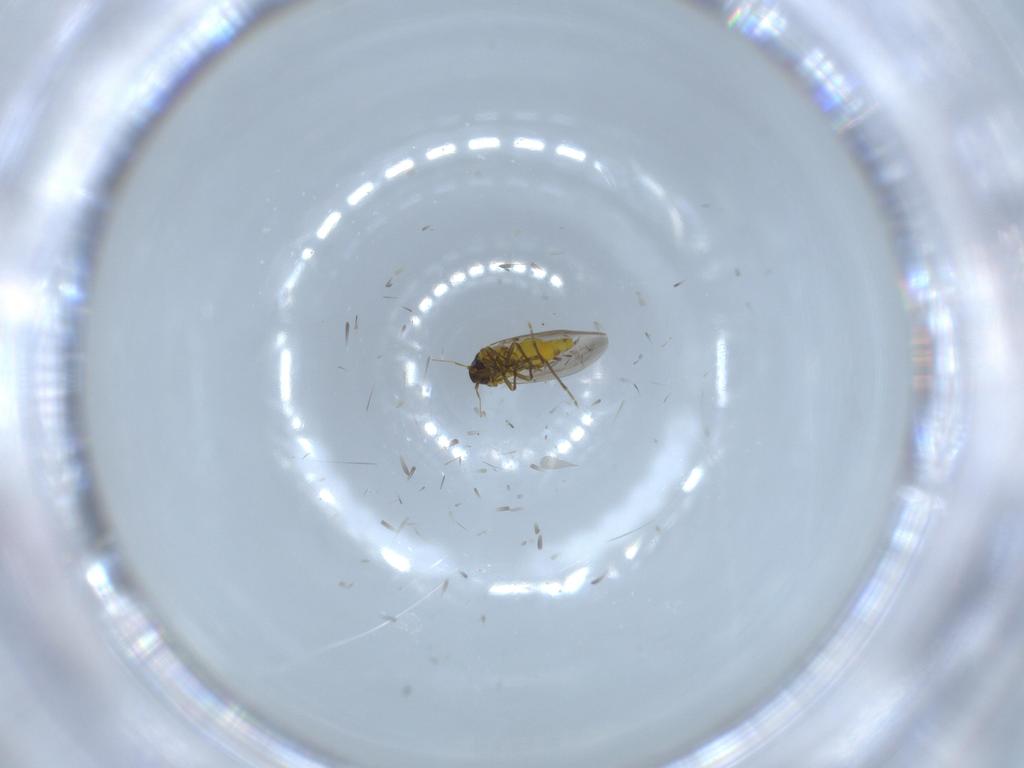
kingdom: Animalia
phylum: Arthropoda
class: Insecta
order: Hemiptera
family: Aleyrodidae
